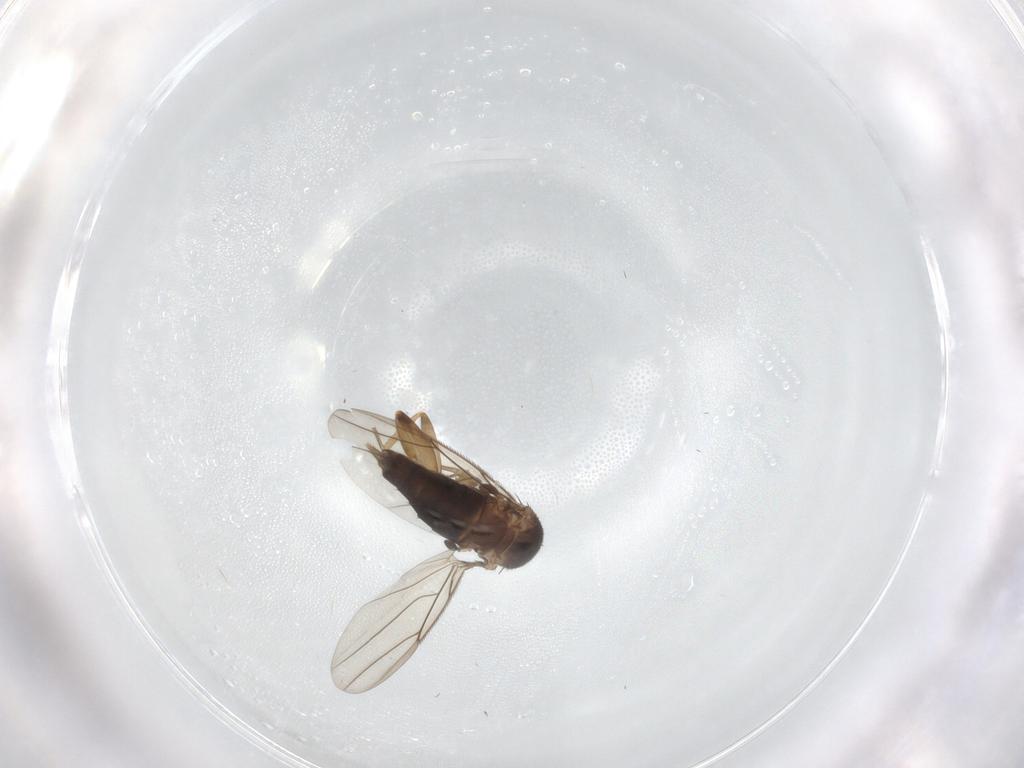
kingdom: Animalia
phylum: Arthropoda
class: Insecta
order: Diptera
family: Phoridae
